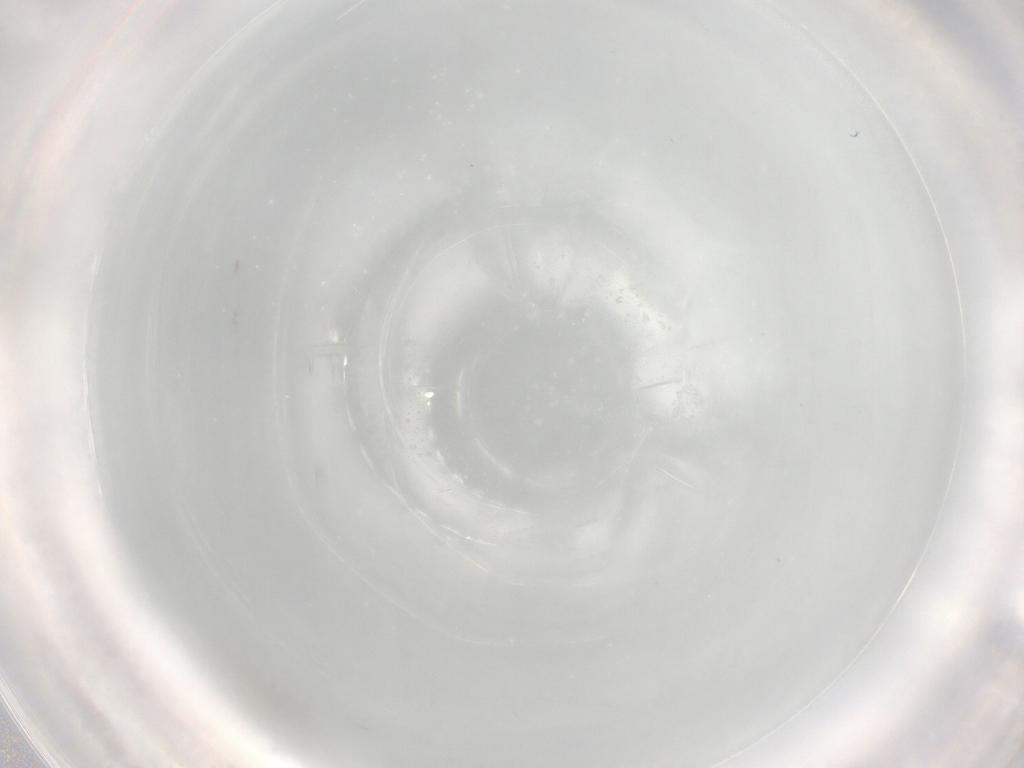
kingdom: Animalia
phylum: Arthropoda
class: Insecta
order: Diptera
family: Cecidomyiidae
